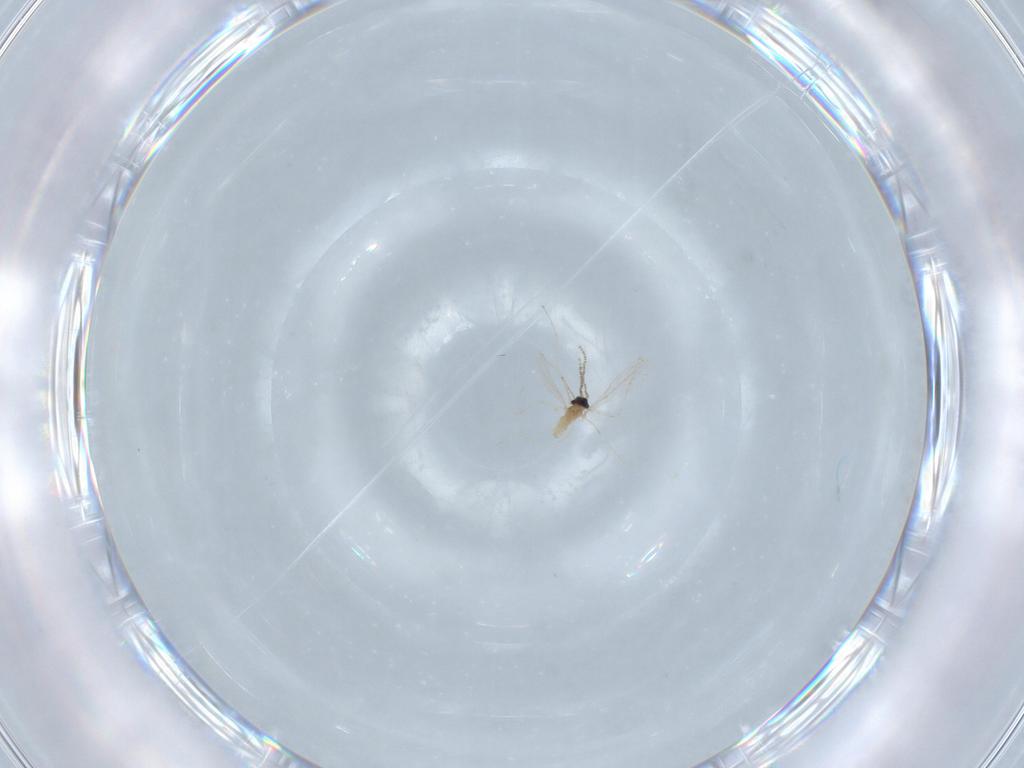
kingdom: Animalia
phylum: Arthropoda
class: Insecta
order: Diptera
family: Cecidomyiidae
